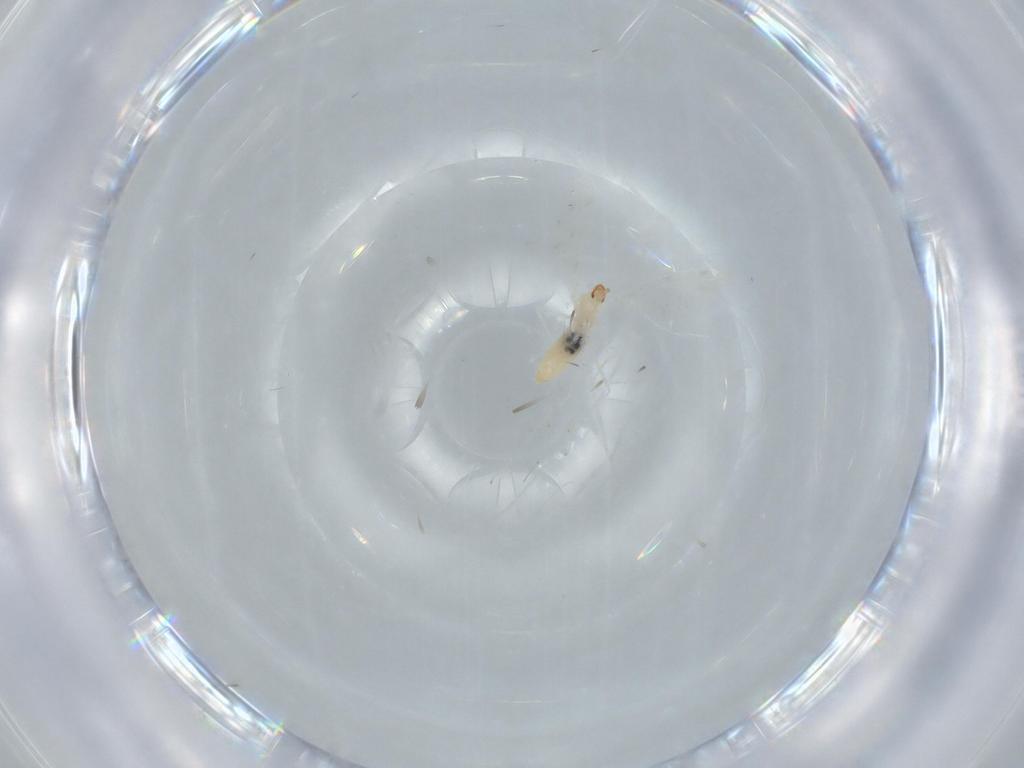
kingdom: Animalia
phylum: Arthropoda
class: Insecta
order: Diptera
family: Cecidomyiidae
